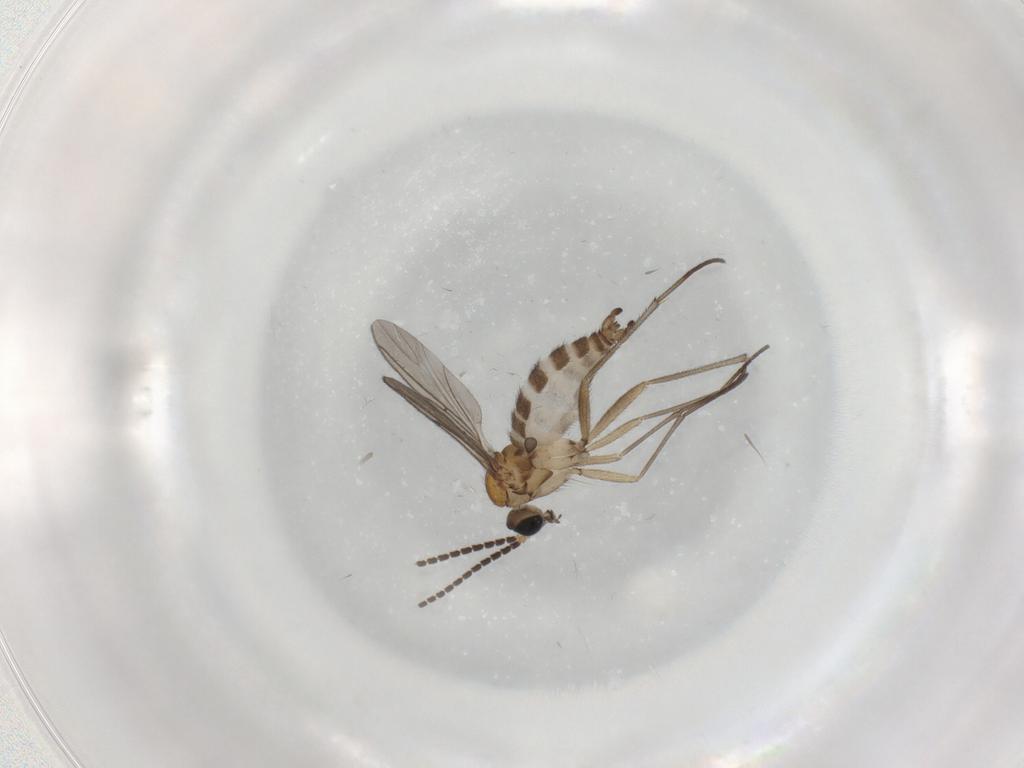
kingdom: Animalia
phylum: Arthropoda
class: Insecta
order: Diptera
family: Sciaridae
